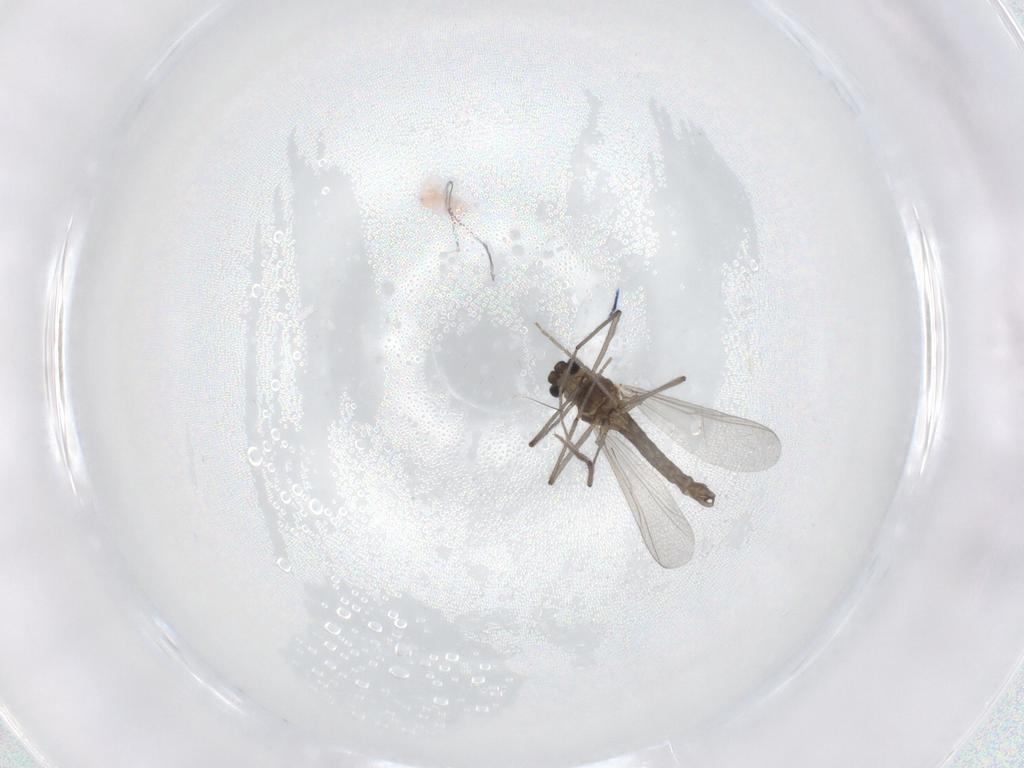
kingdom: Animalia
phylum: Arthropoda
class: Insecta
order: Diptera
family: Chironomidae
